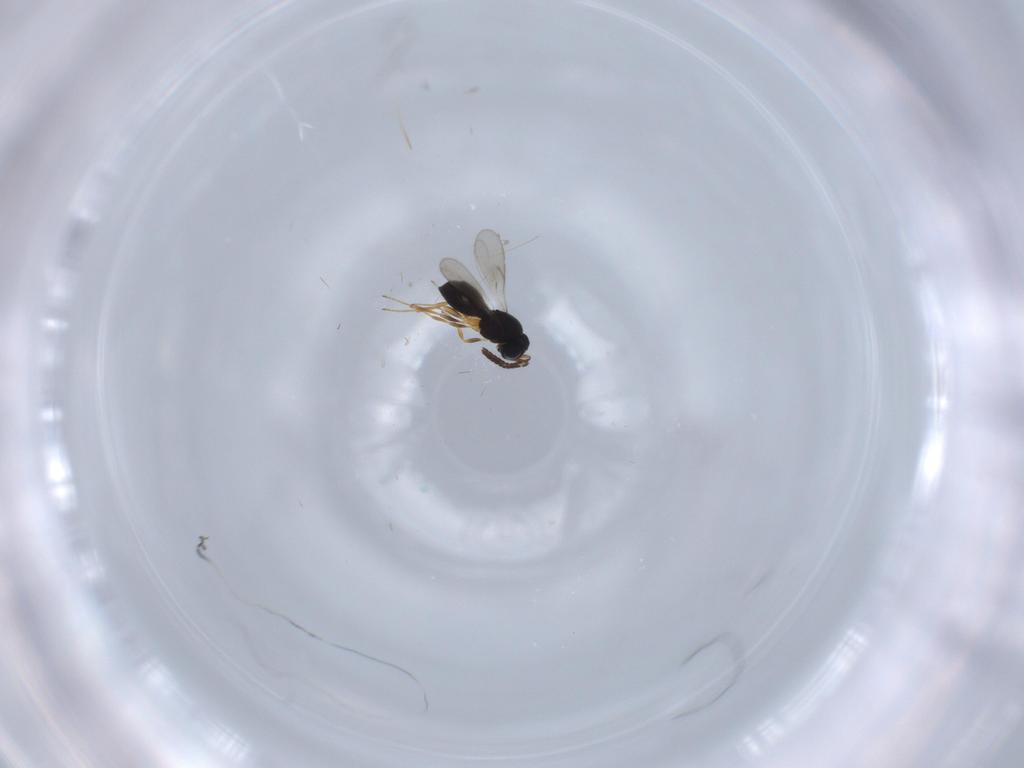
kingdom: Animalia
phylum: Arthropoda
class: Insecta
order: Hymenoptera
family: Scelionidae
